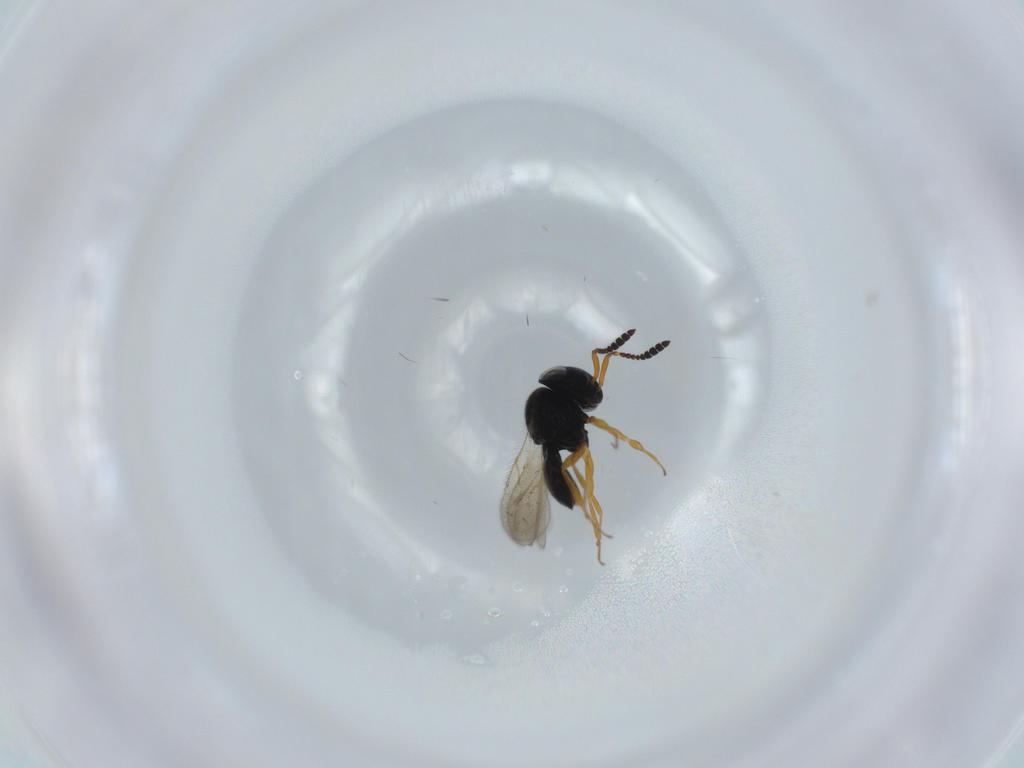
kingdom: Animalia
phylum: Arthropoda
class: Insecta
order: Hymenoptera
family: Scelionidae
